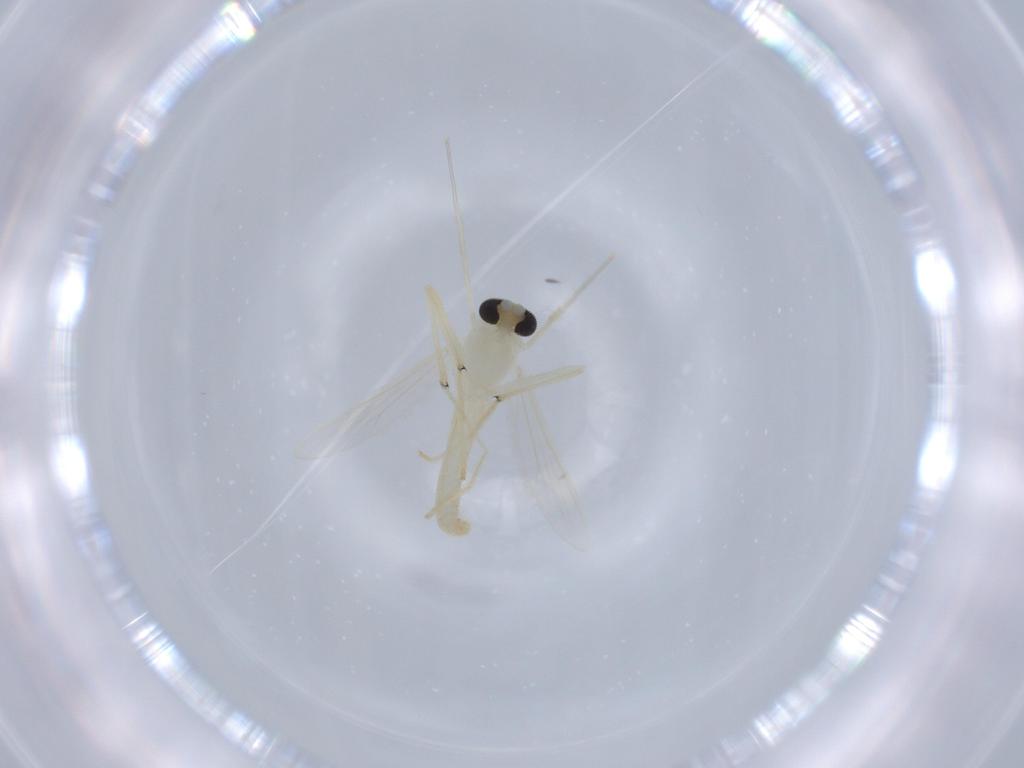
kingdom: Animalia
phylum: Arthropoda
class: Insecta
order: Diptera
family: Chironomidae
